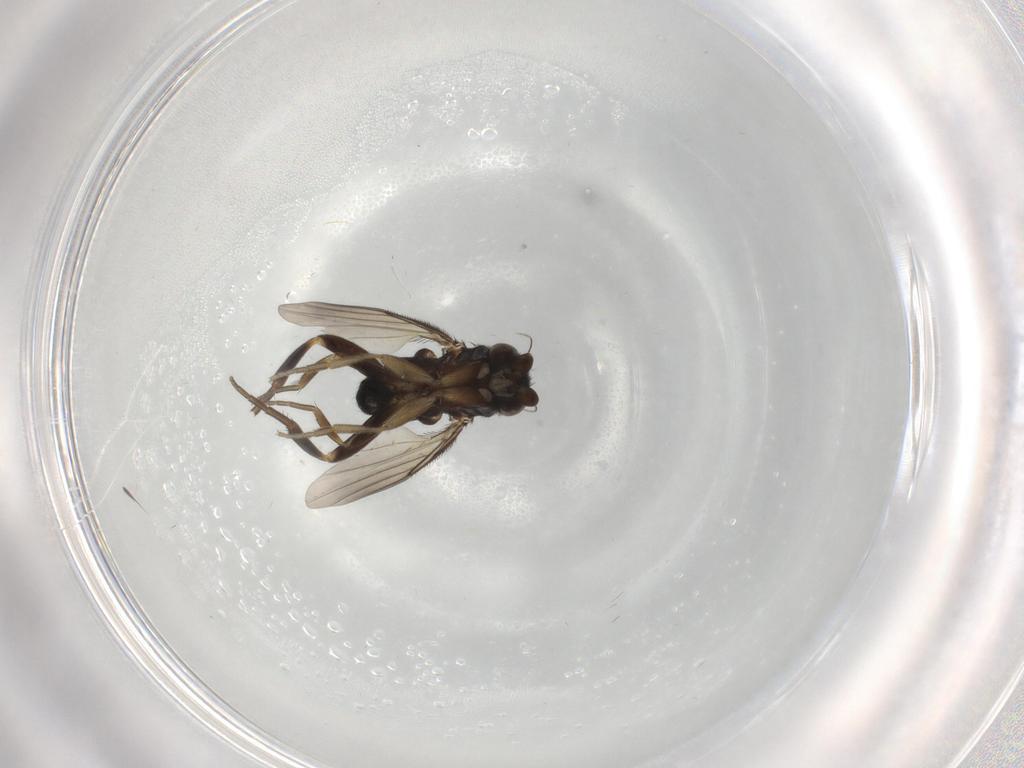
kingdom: Animalia
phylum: Arthropoda
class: Insecta
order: Diptera
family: Phoridae
